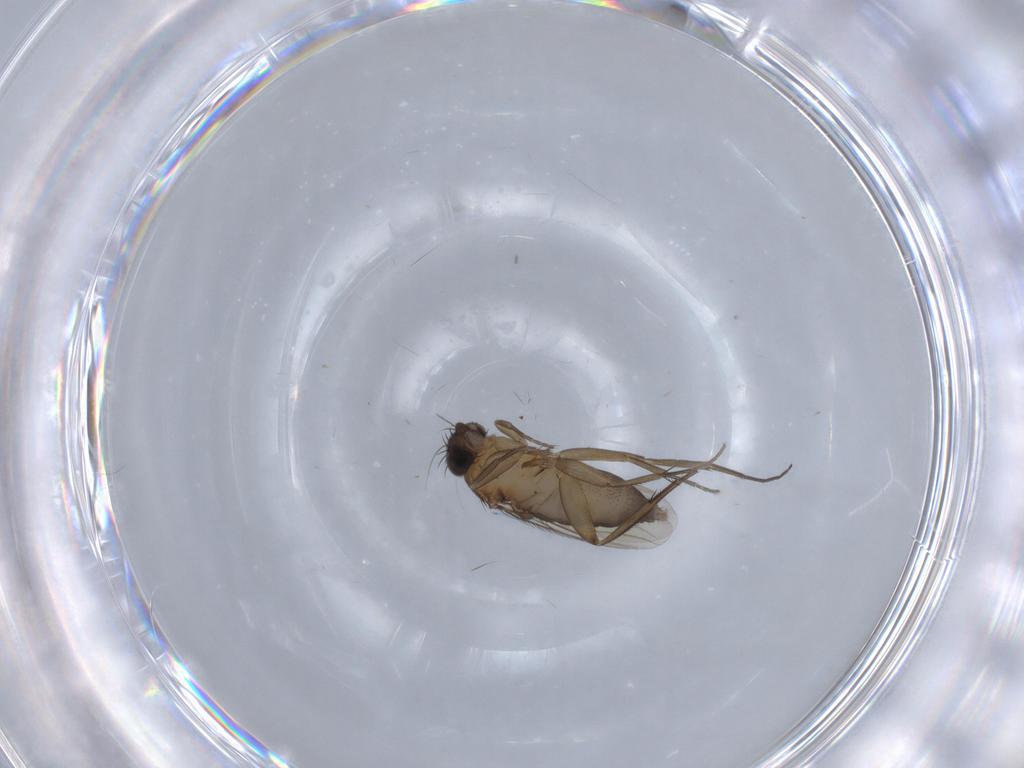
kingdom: Animalia
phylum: Arthropoda
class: Insecta
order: Diptera
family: Phoridae
